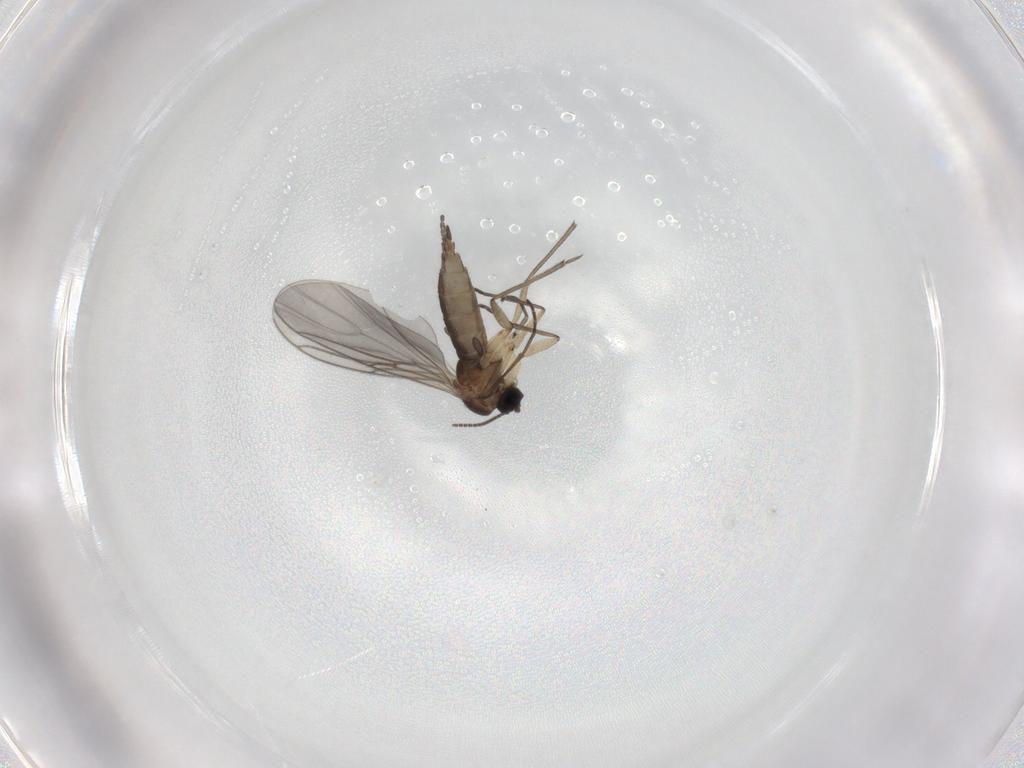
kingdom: Animalia
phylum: Arthropoda
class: Insecta
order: Diptera
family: Sciaridae
